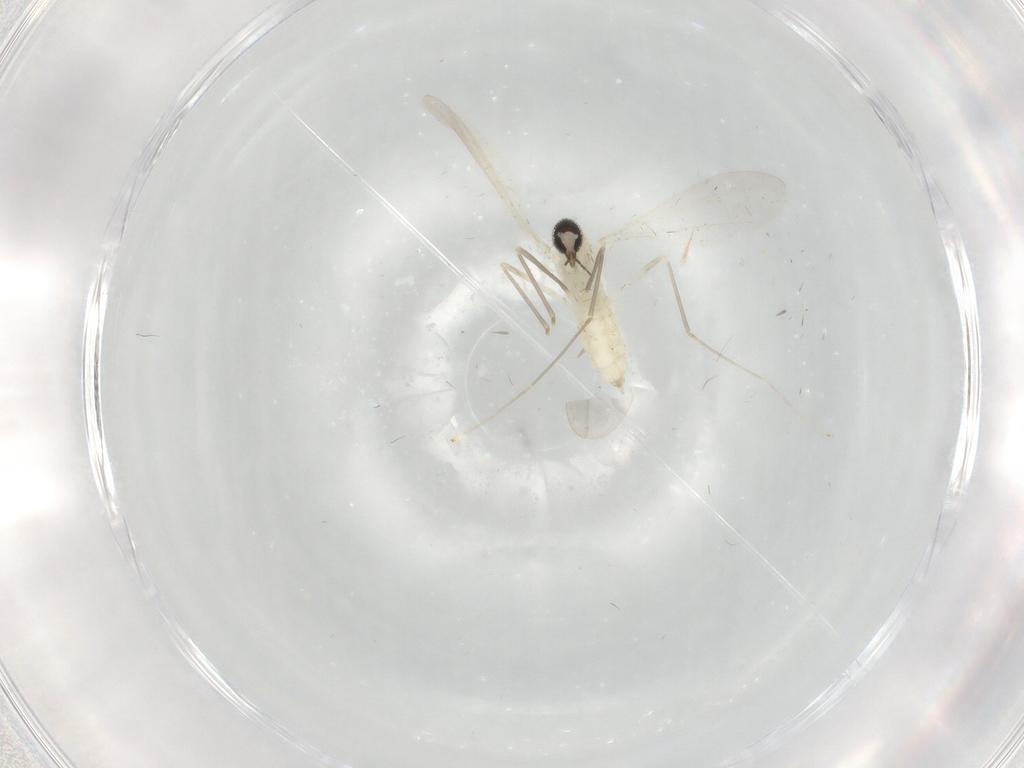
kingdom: Animalia
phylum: Arthropoda
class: Insecta
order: Diptera
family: Cecidomyiidae
